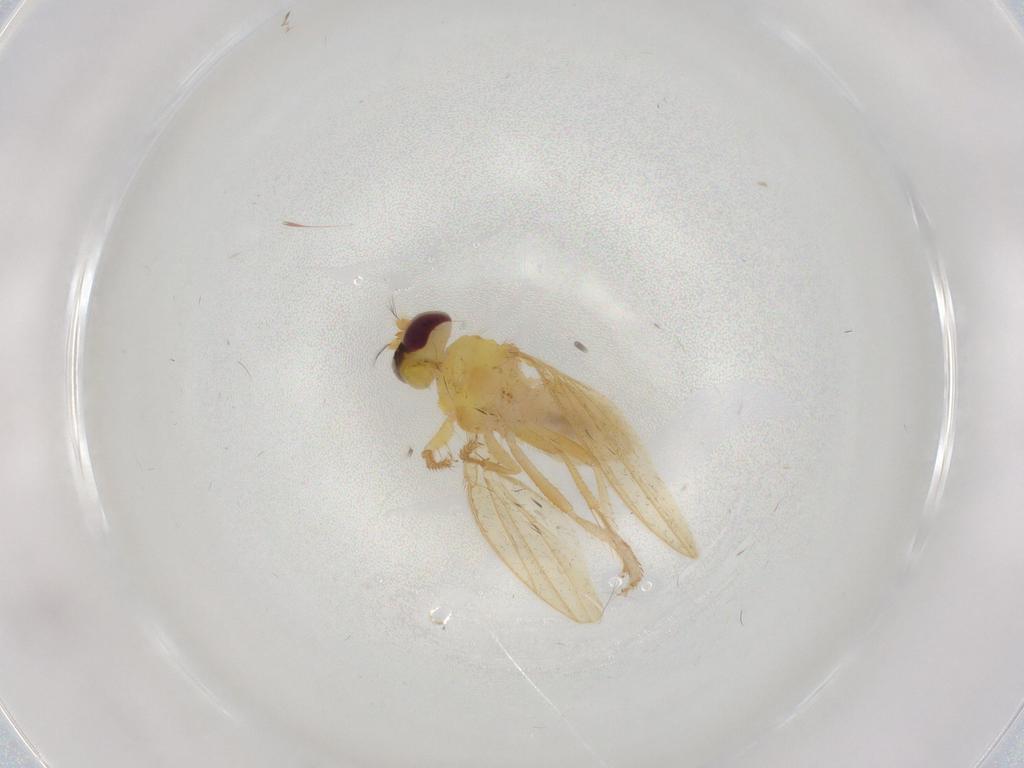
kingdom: Animalia
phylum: Arthropoda
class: Insecta
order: Diptera
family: Periscelididae
